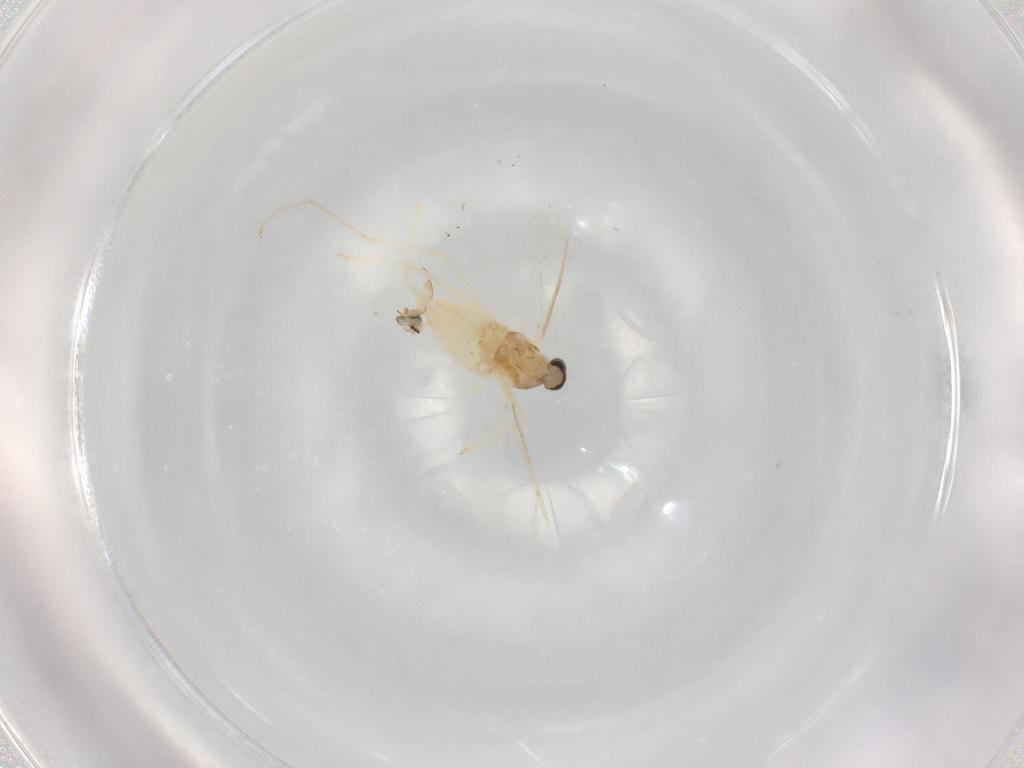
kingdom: Animalia
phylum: Arthropoda
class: Insecta
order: Diptera
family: Cecidomyiidae
